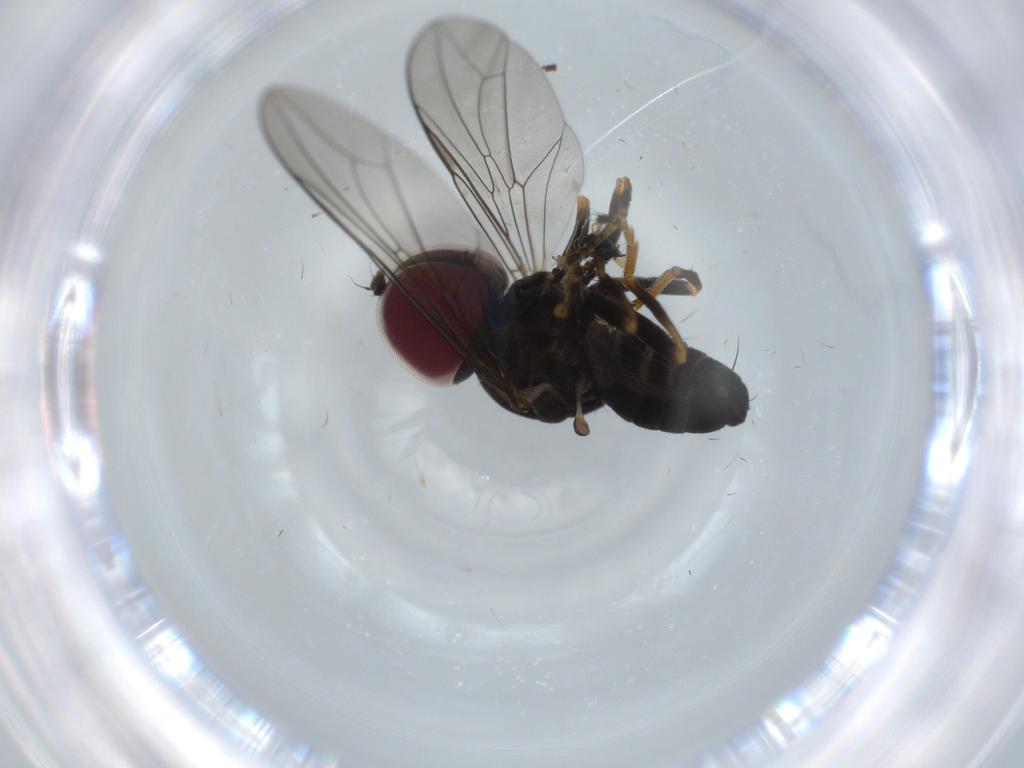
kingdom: Animalia
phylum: Arthropoda
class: Insecta
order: Diptera
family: Phoridae
